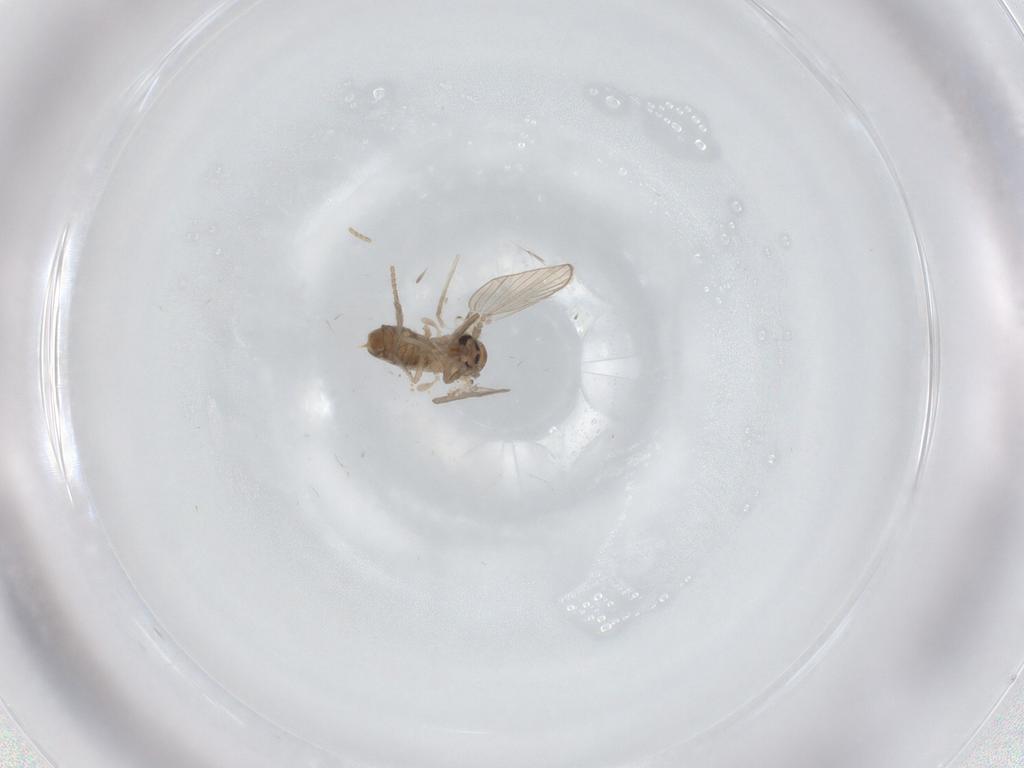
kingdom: Animalia
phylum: Arthropoda
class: Insecta
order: Diptera
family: Psychodidae
